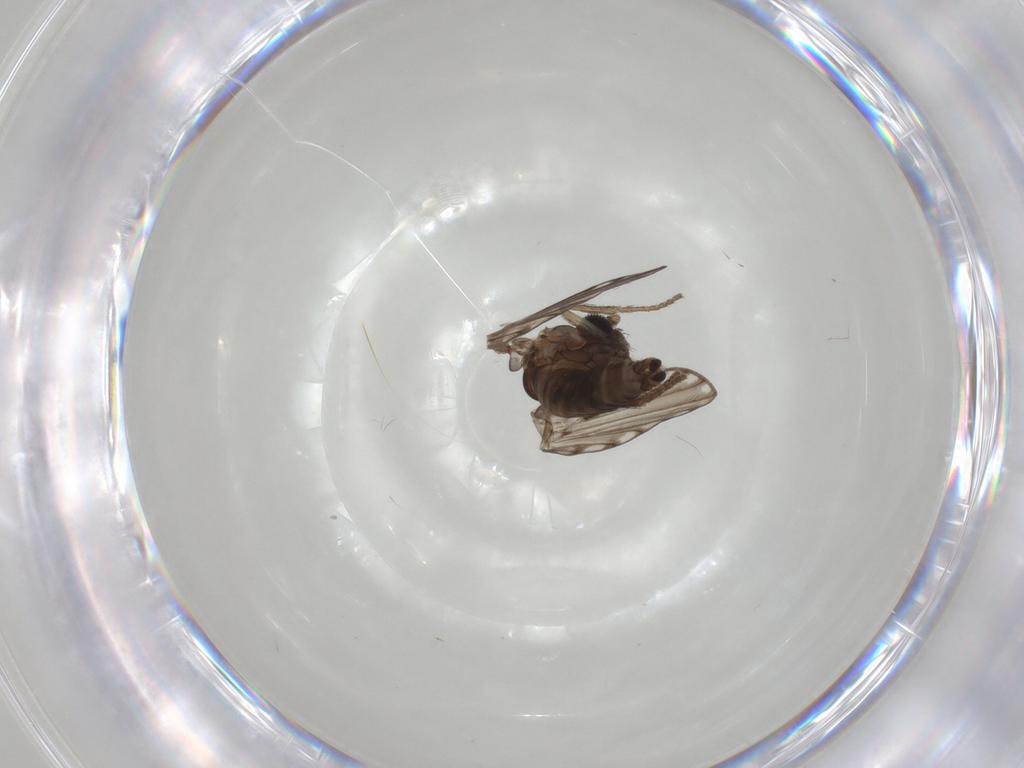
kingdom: Animalia
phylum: Arthropoda
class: Insecta
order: Diptera
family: Psychodidae
